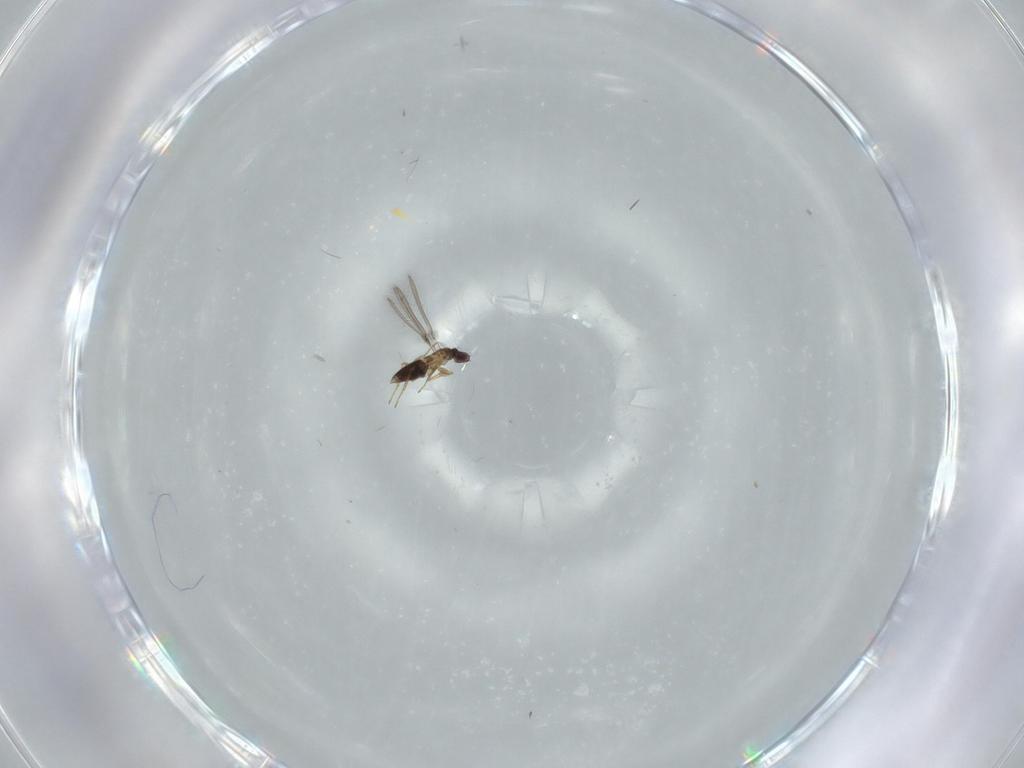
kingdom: Animalia
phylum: Arthropoda
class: Insecta
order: Hymenoptera
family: Mymaridae
